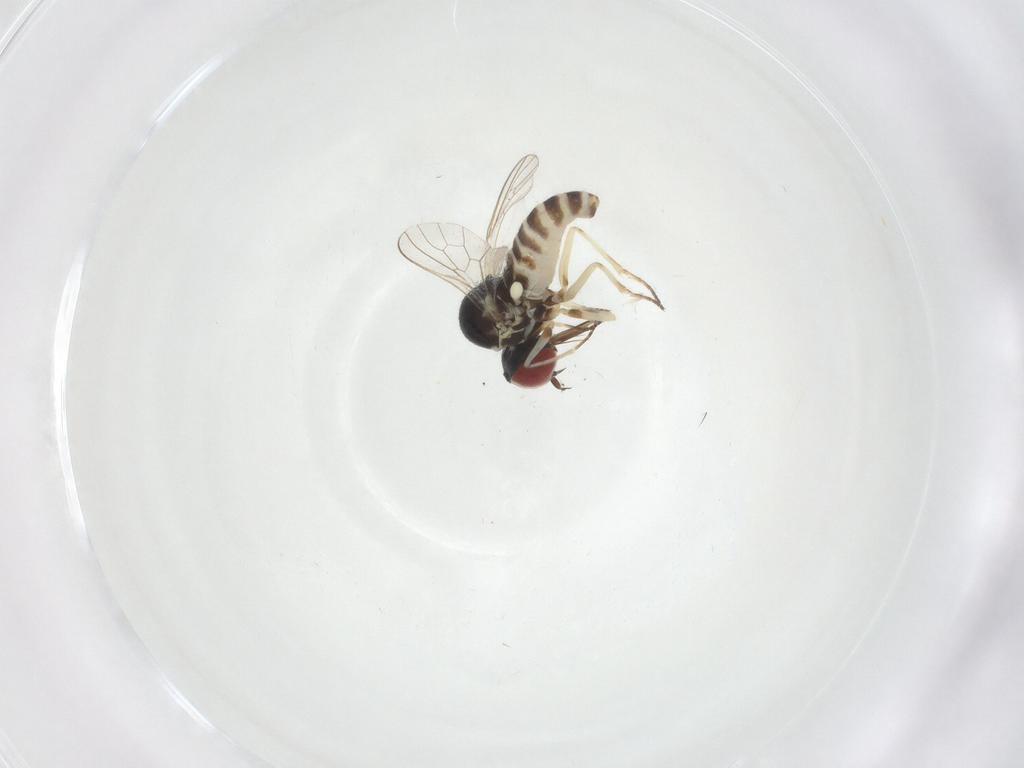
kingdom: Animalia
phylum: Arthropoda
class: Insecta
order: Diptera
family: Mythicomyiidae
